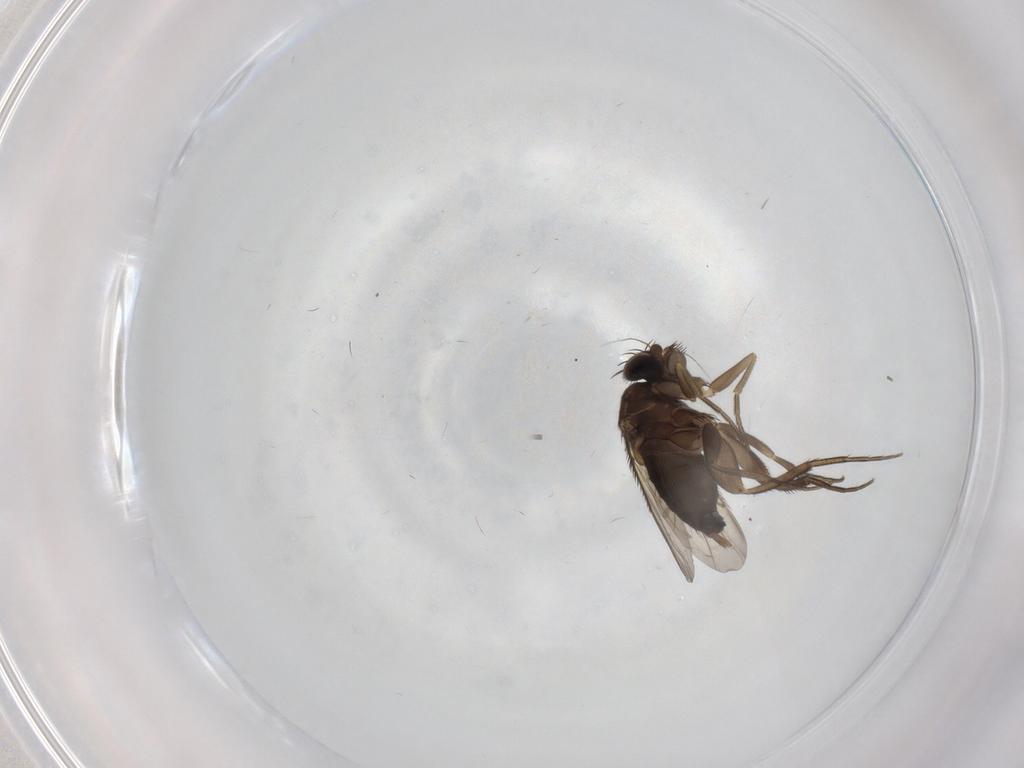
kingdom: Animalia
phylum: Arthropoda
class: Insecta
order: Diptera
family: Phoridae
